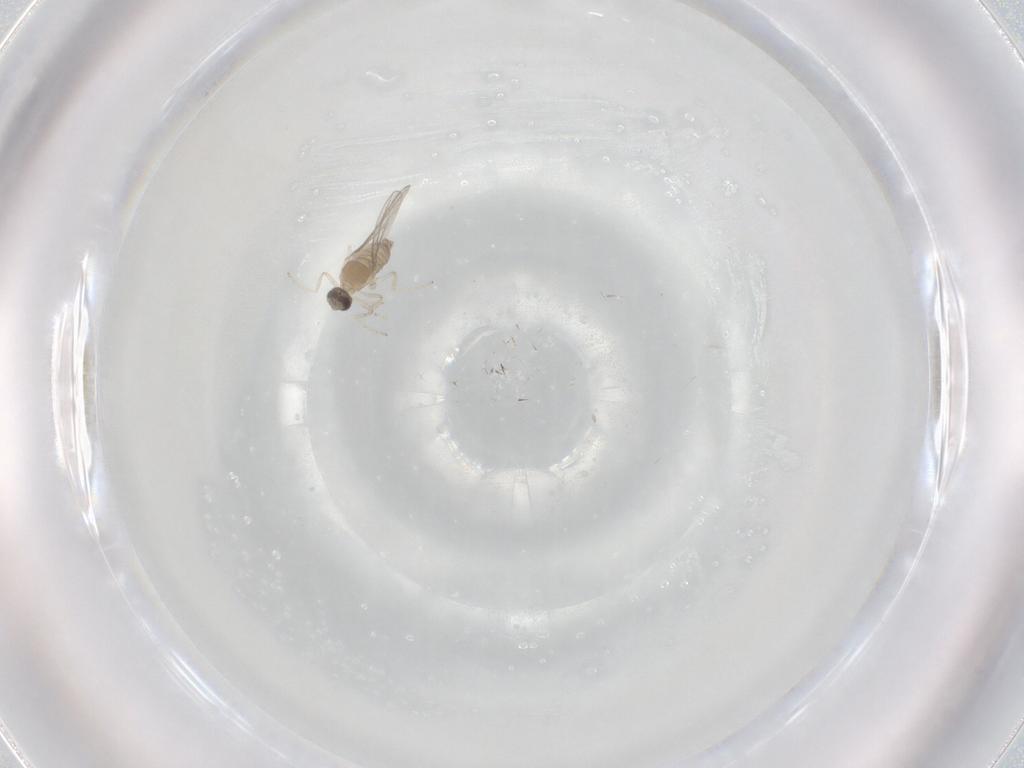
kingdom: Animalia
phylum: Arthropoda
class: Insecta
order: Diptera
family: Cecidomyiidae
